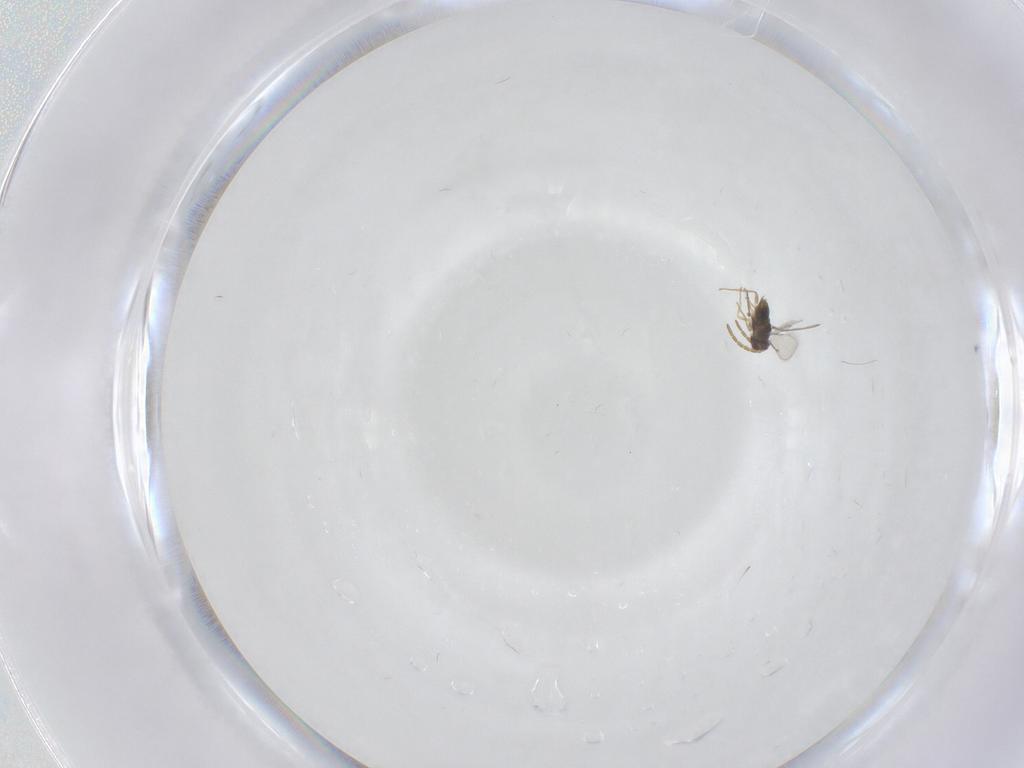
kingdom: Animalia
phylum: Arthropoda
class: Insecta
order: Hymenoptera
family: Aphelinidae
